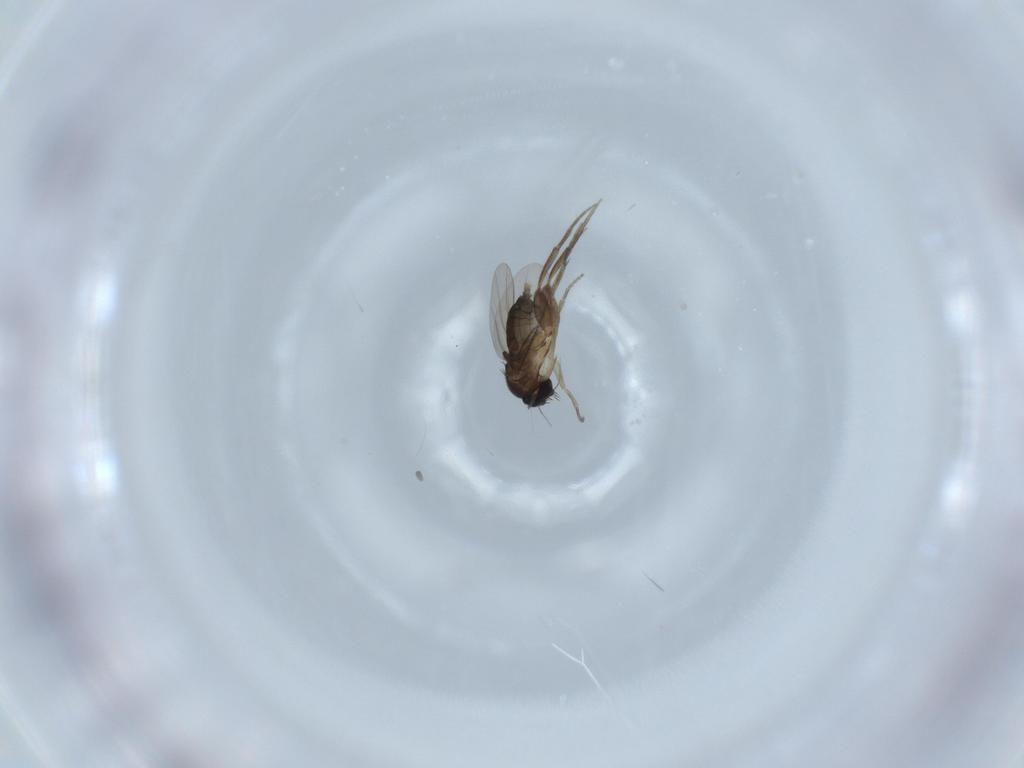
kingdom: Animalia
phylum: Arthropoda
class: Insecta
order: Diptera
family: Phoridae
